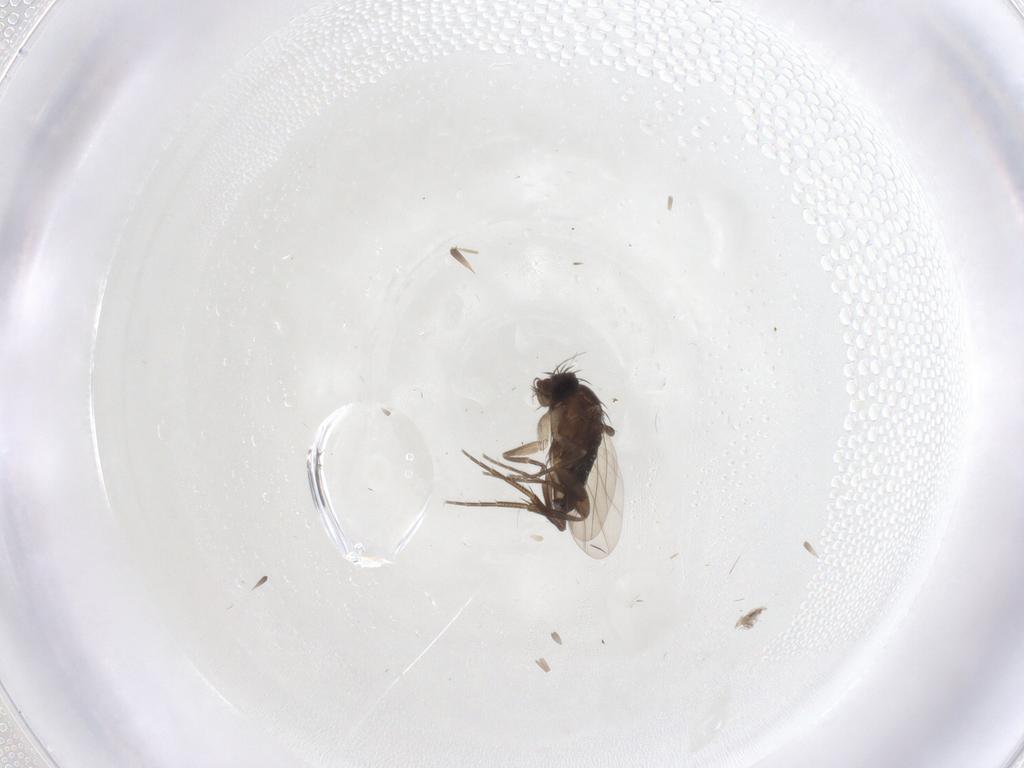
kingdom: Animalia
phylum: Arthropoda
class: Insecta
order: Diptera
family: Phoridae
